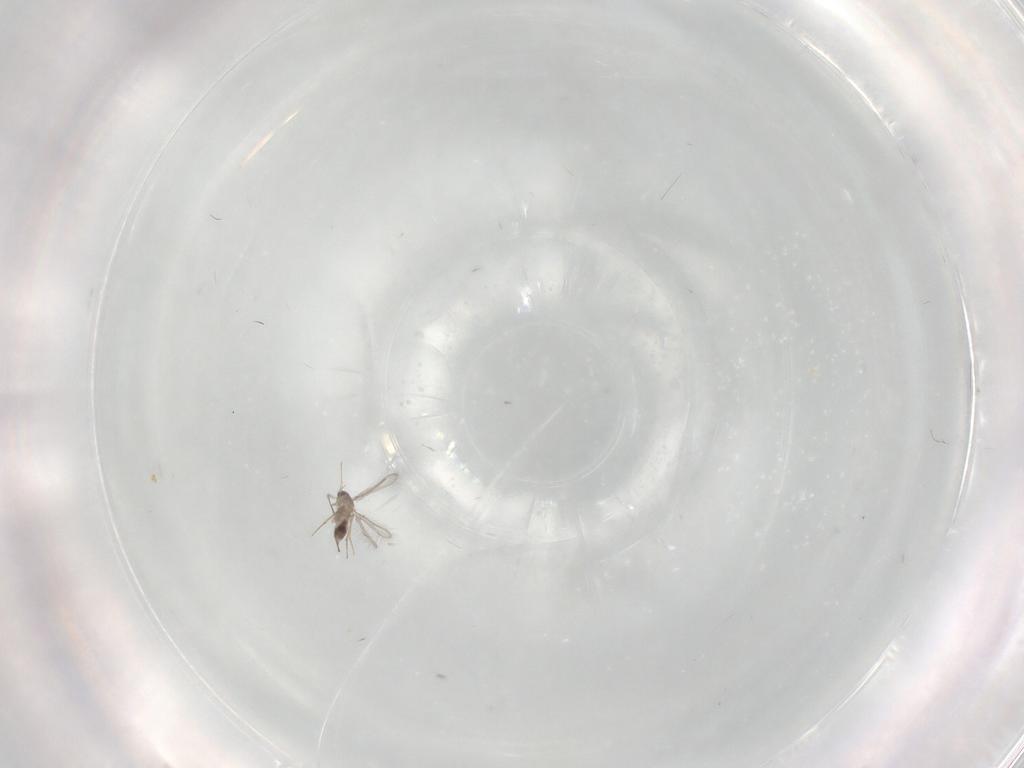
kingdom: Animalia
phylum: Arthropoda
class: Insecta
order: Hymenoptera
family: Mymaridae
